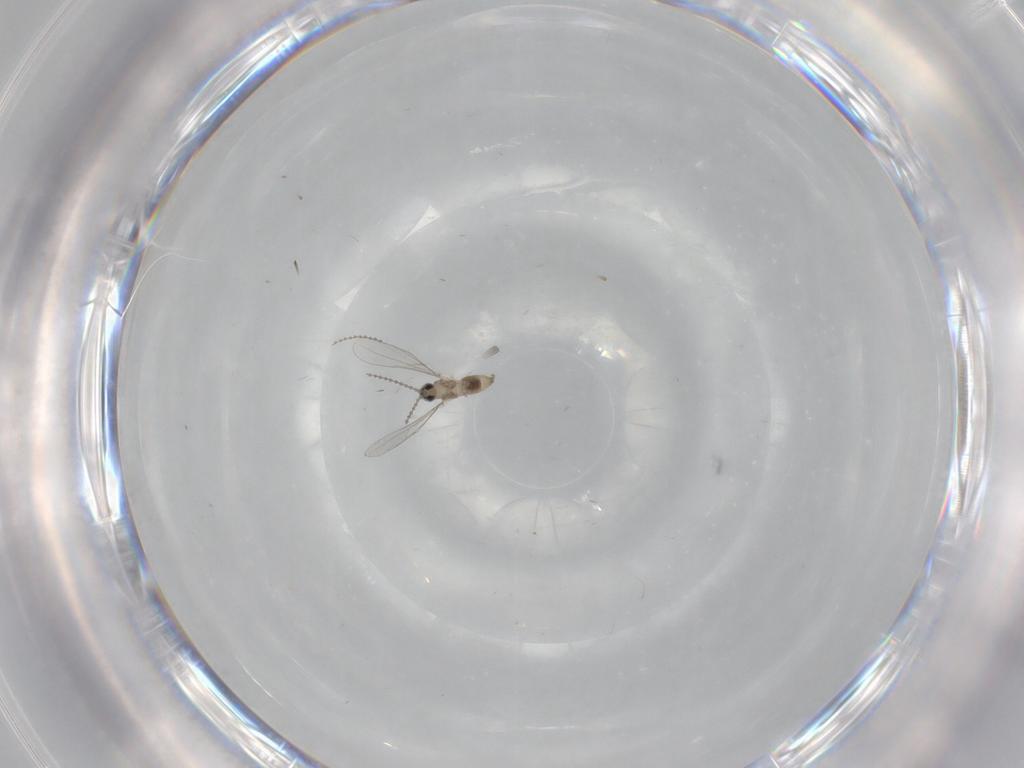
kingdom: Animalia
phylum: Arthropoda
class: Insecta
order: Diptera
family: Cecidomyiidae
